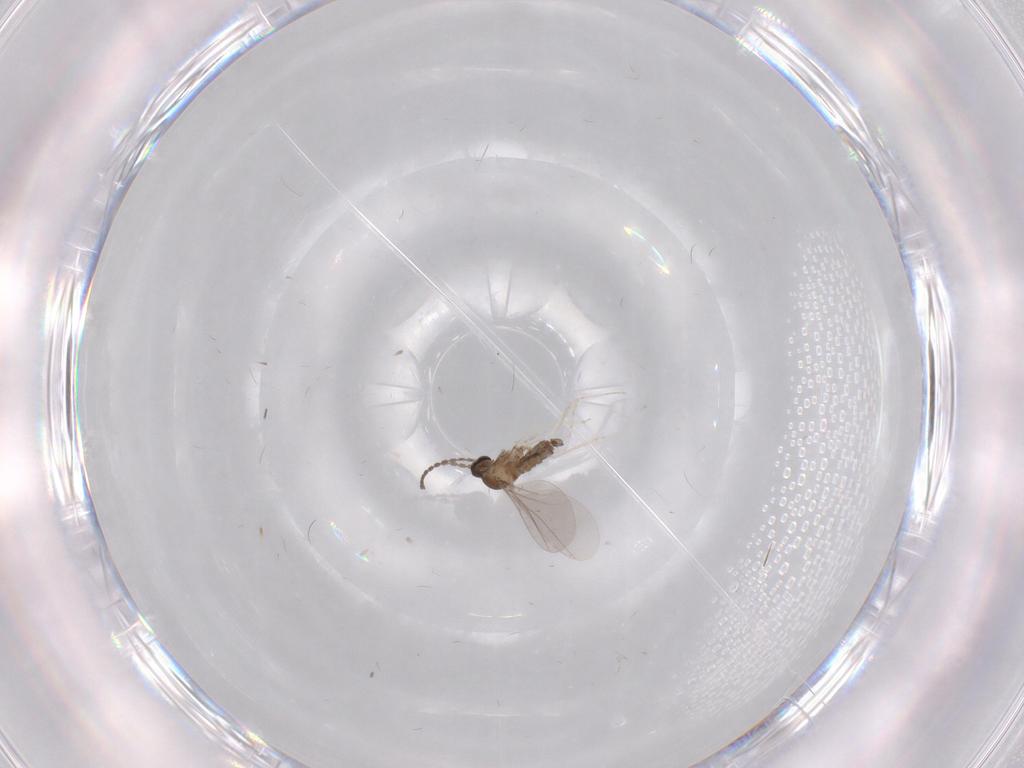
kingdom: Animalia
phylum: Arthropoda
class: Insecta
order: Diptera
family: Cecidomyiidae
